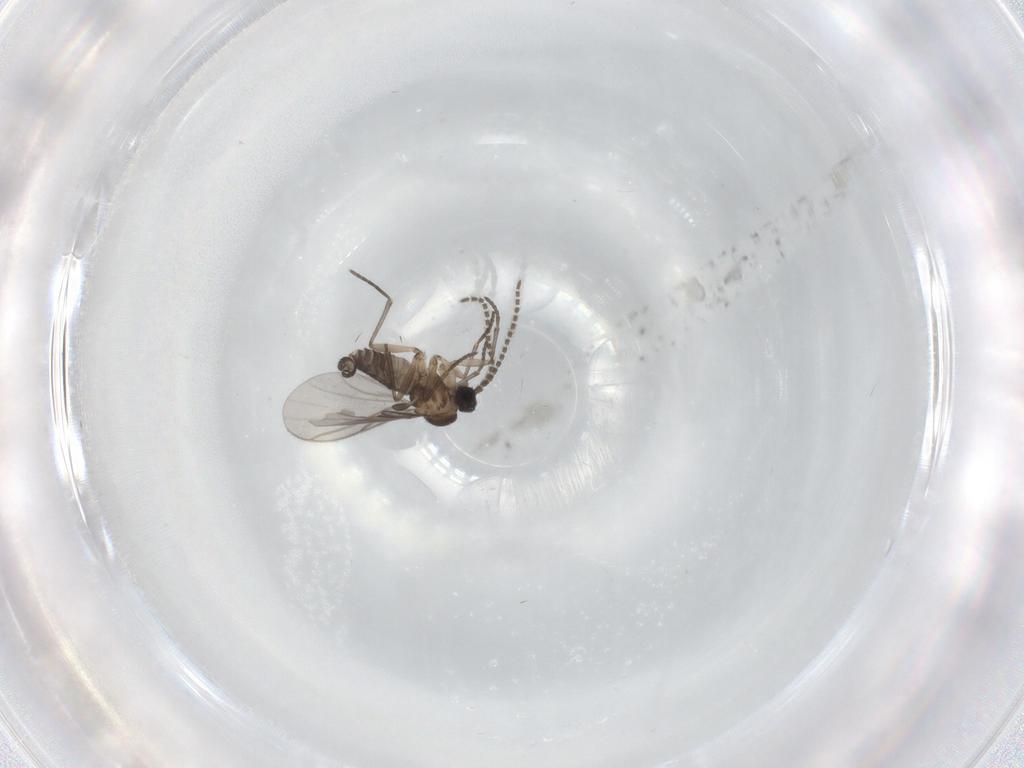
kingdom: Animalia
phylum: Arthropoda
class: Insecta
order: Diptera
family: Cecidomyiidae
